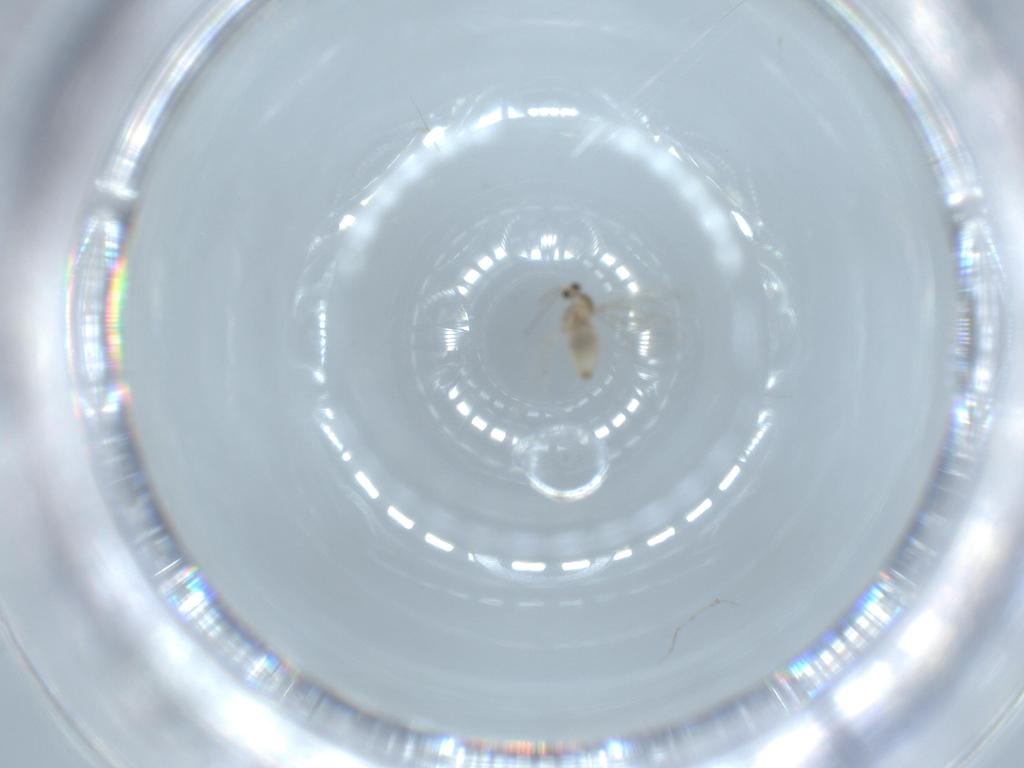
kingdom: Animalia
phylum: Arthropoda
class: Insecta
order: Diptera
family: Cecidomyiidae
